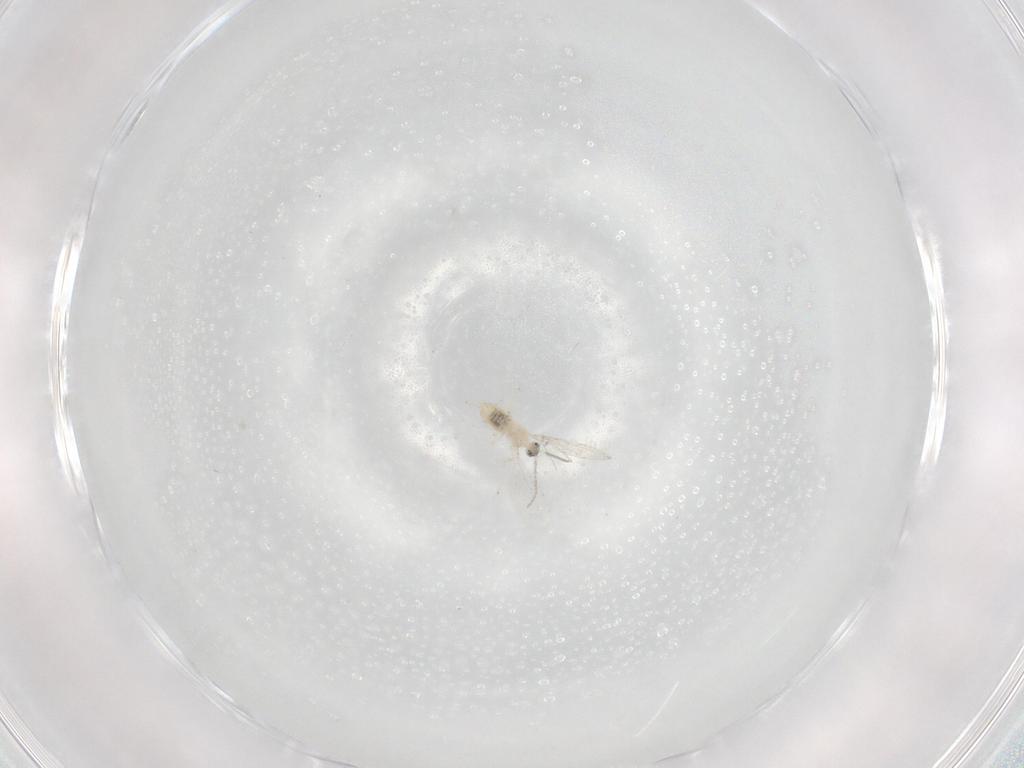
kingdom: Animalia
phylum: Arthropoda
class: Insecta
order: Diptera
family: Cecidomyiidae
